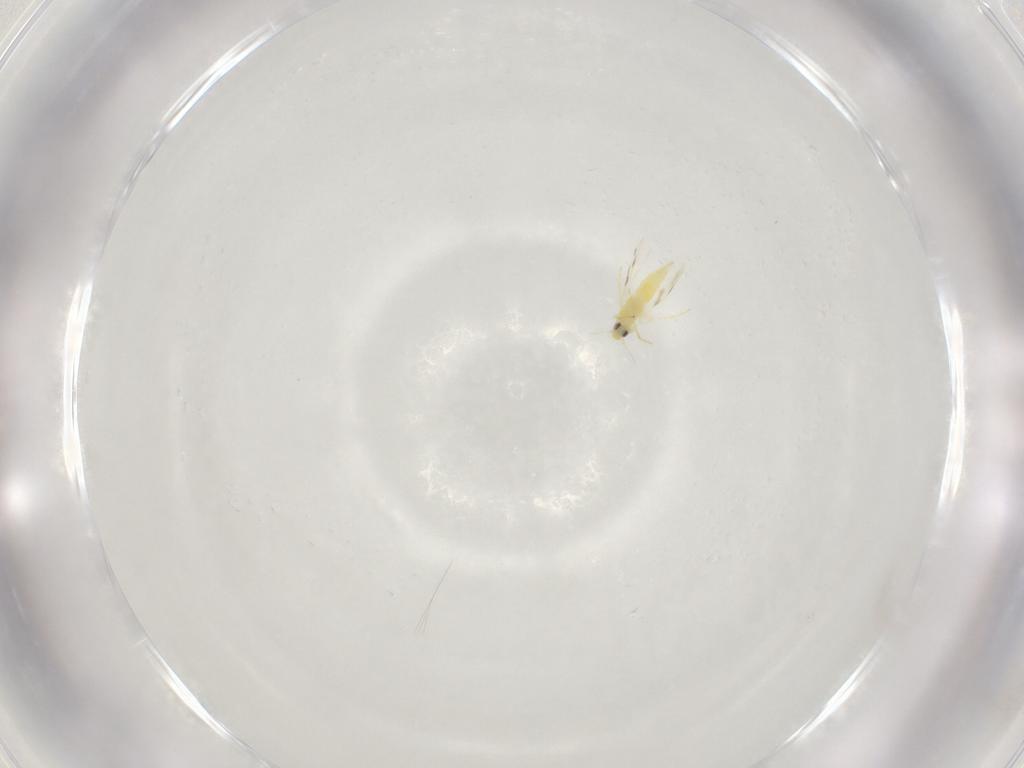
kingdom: Animalia
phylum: Arthropoda
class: Insecta
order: Hemiptera
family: Aleyrodidae
